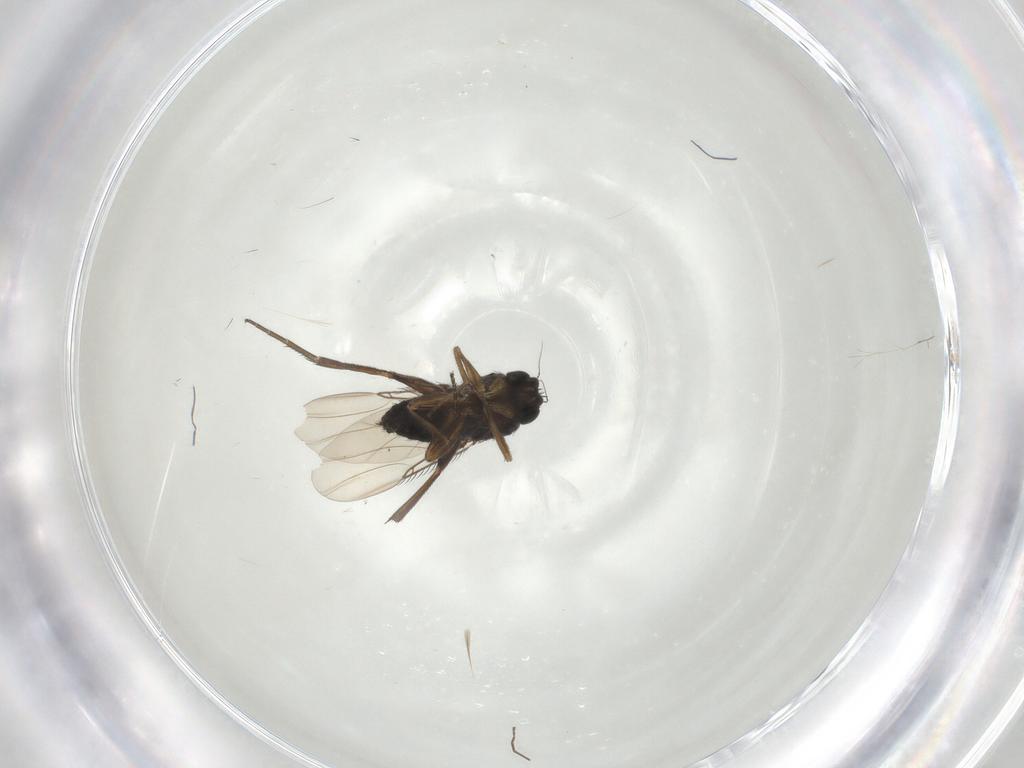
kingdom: Animalia
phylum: Arthropoda
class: Insecta
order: Diptera
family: Phoridae
